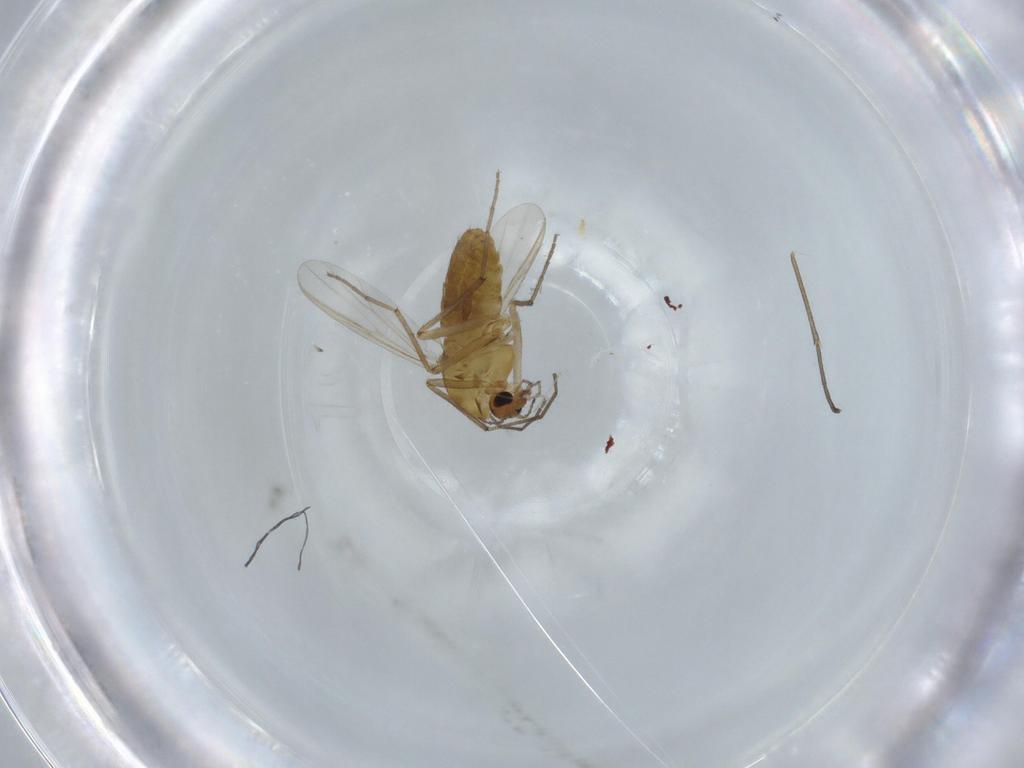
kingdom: Animalia
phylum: Arthropoda
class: Insecta
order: Diptera
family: Chironomidae
